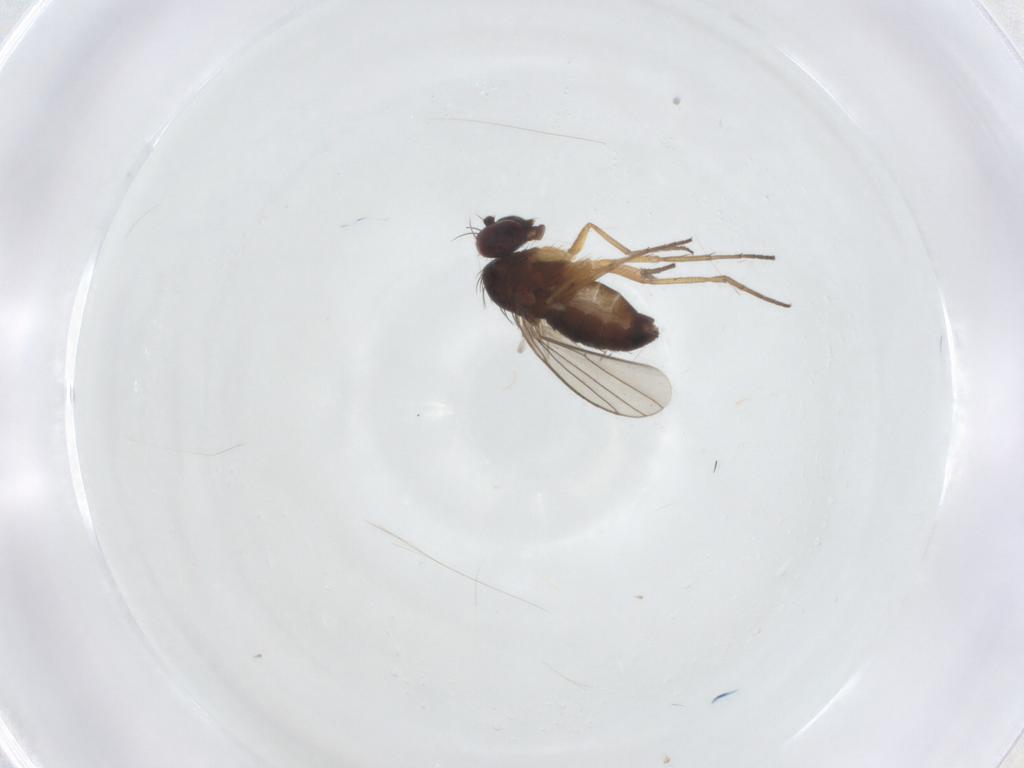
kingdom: Animalia
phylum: Arthropoda
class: Insecta
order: Diptera
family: Dolichopodidae
